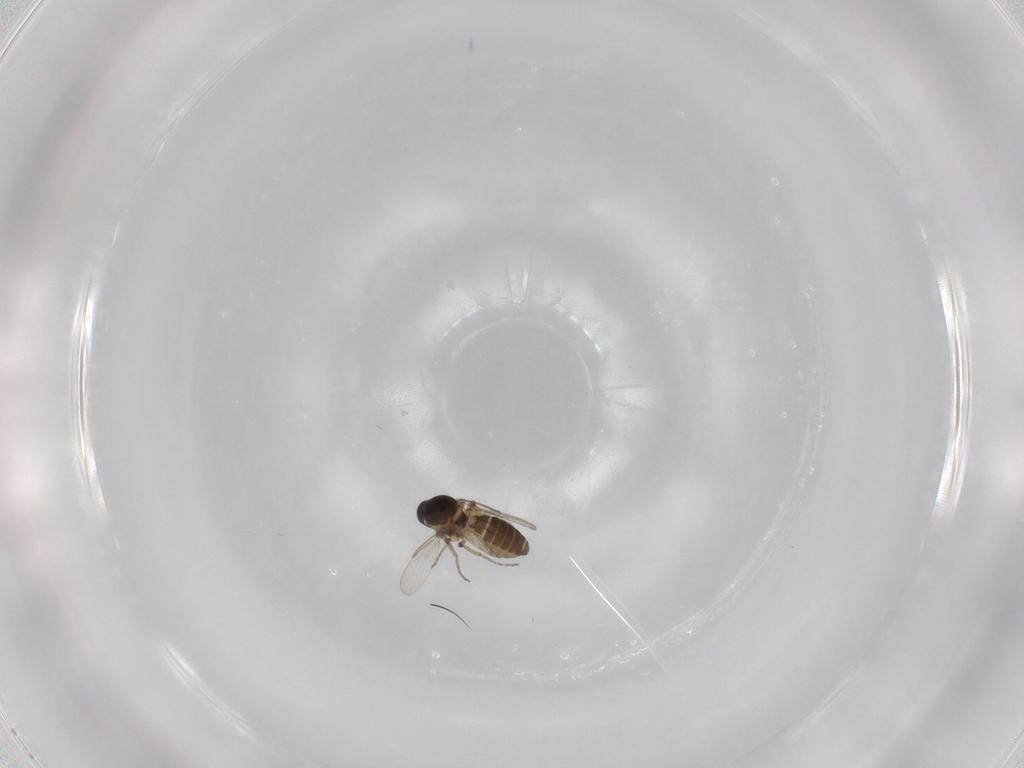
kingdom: Animalia
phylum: Arthropoda
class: Insecta
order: Diptera
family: Ceratopogonidae
